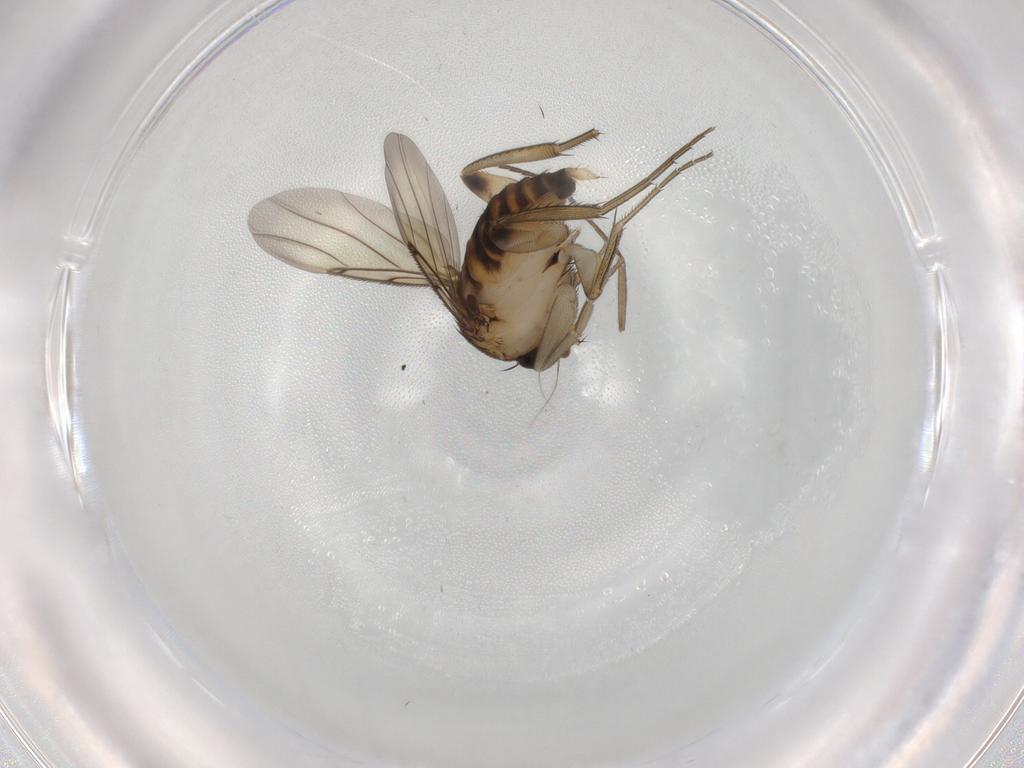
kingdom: Animalia
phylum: Arthropoda
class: Insecta
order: Diptera
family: Phoridae
